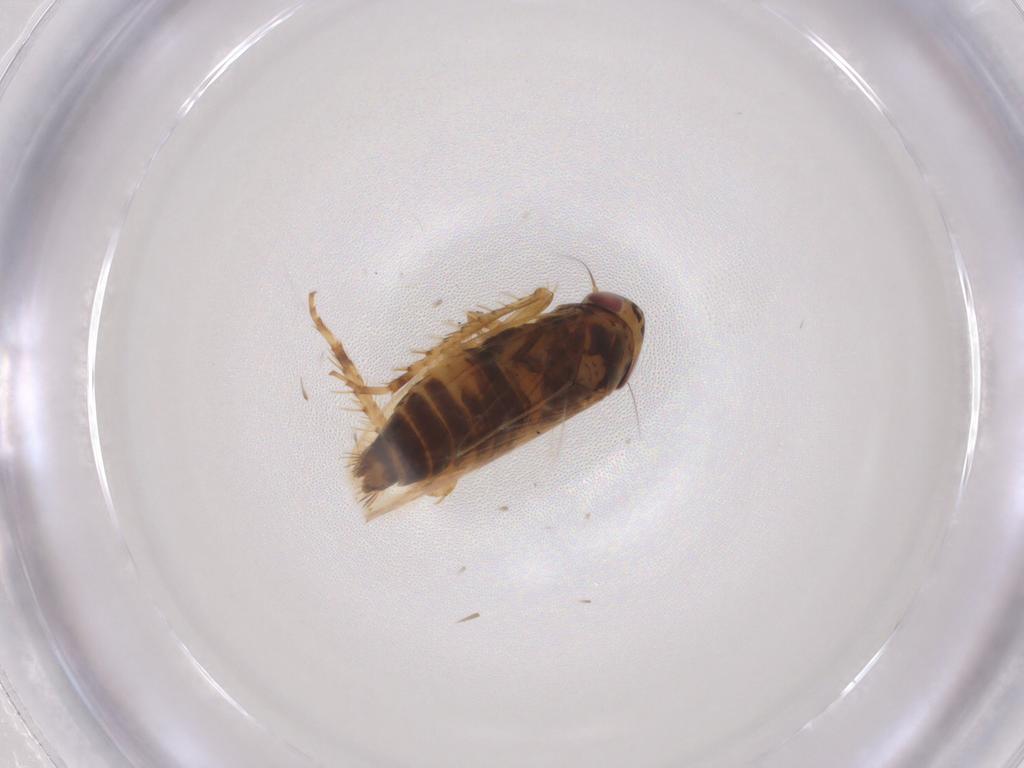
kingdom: Animalia
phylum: Arthropoda
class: Insecta
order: Hemiptera
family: Cicadellidae
